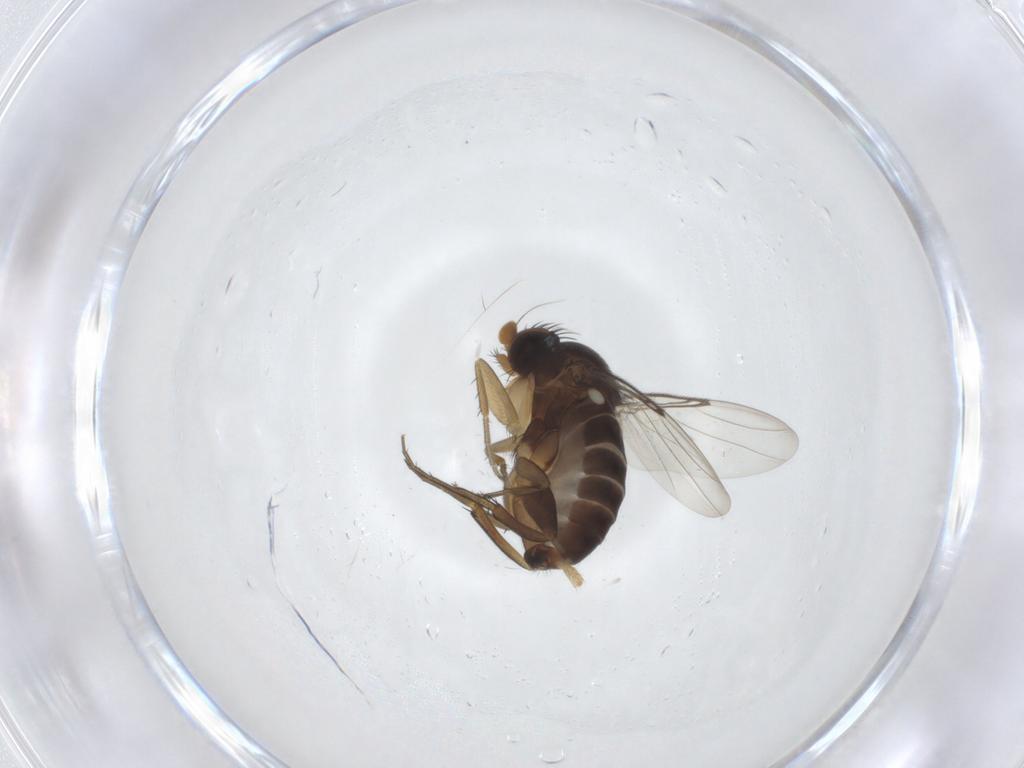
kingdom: Animalia
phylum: Arthropoda
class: Insecta
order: Diptera
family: Phoridae
